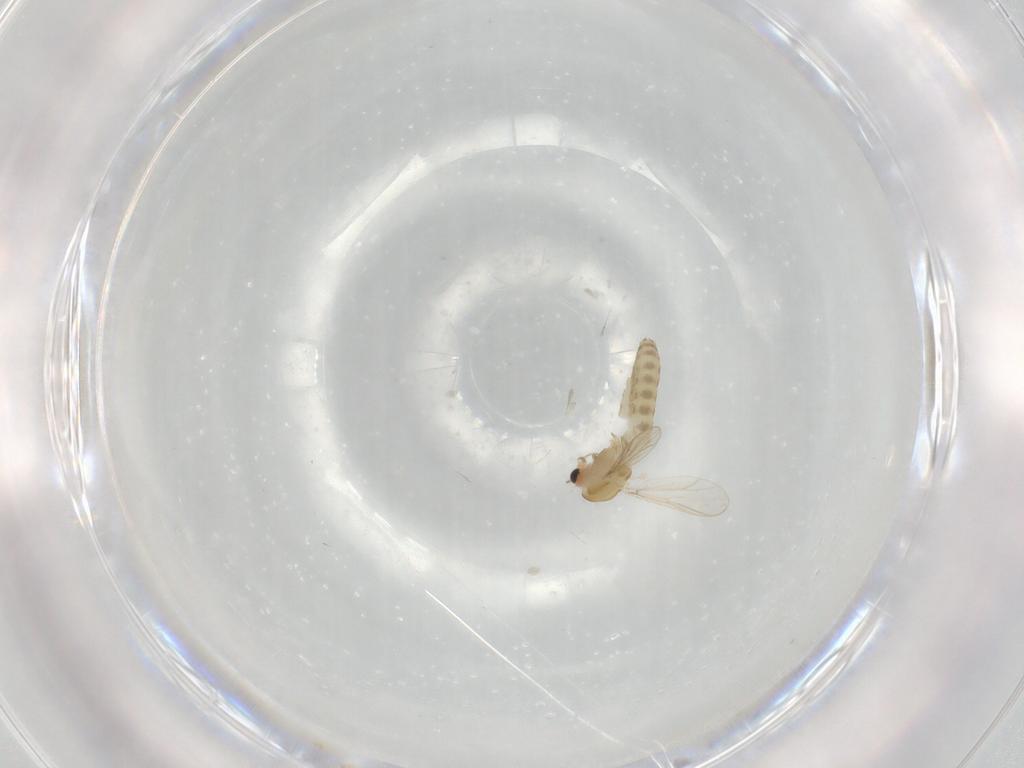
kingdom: Animalia
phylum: Arthropoda
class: Insecta
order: Diptera
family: Chironomidae
